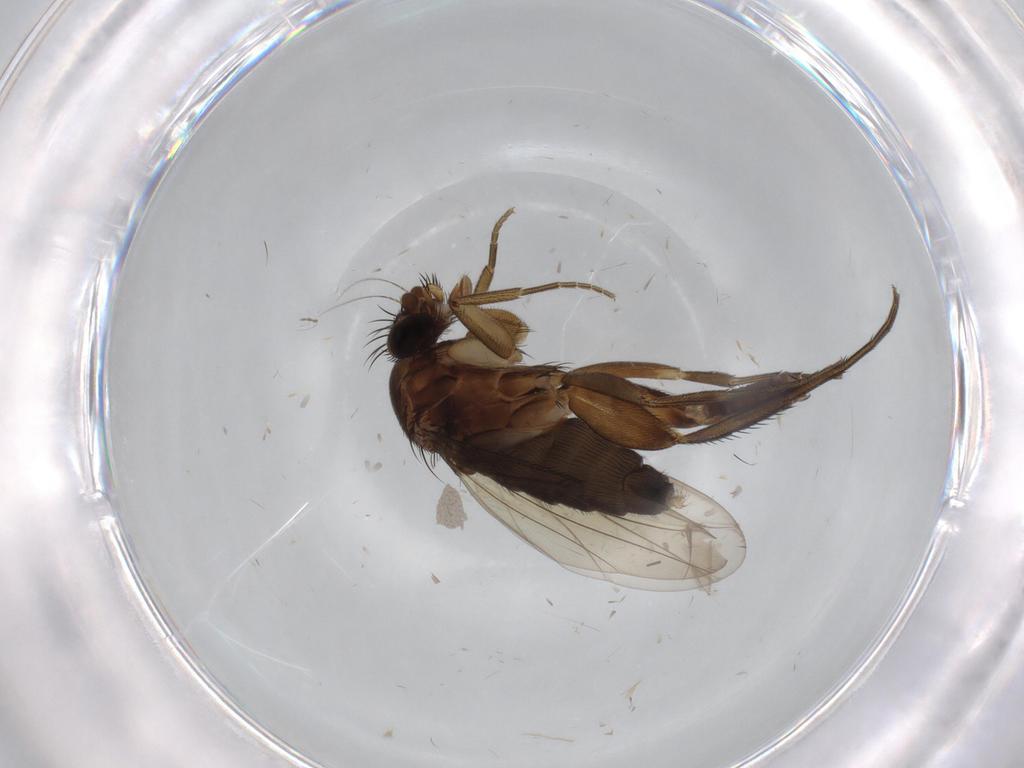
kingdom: Animalia
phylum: Arthropoda
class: Insecta
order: Diptera
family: Phoridae
